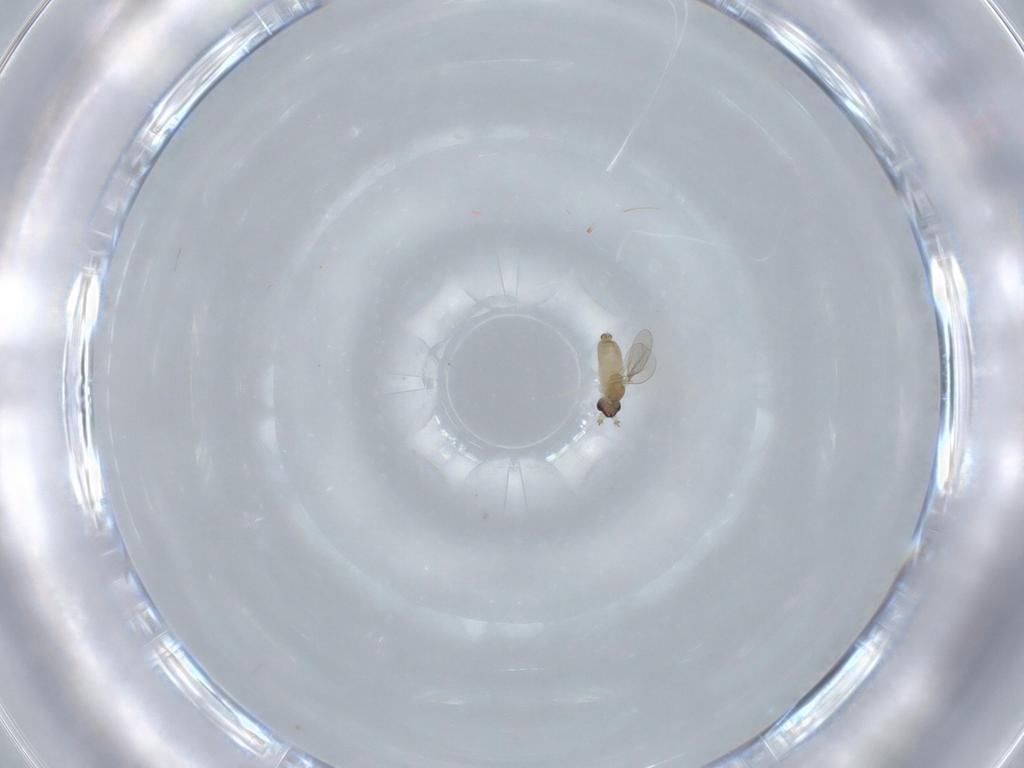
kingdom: Animalia
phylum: Arthropoda
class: Insecta
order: Diptera
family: Cecidomyiidae
